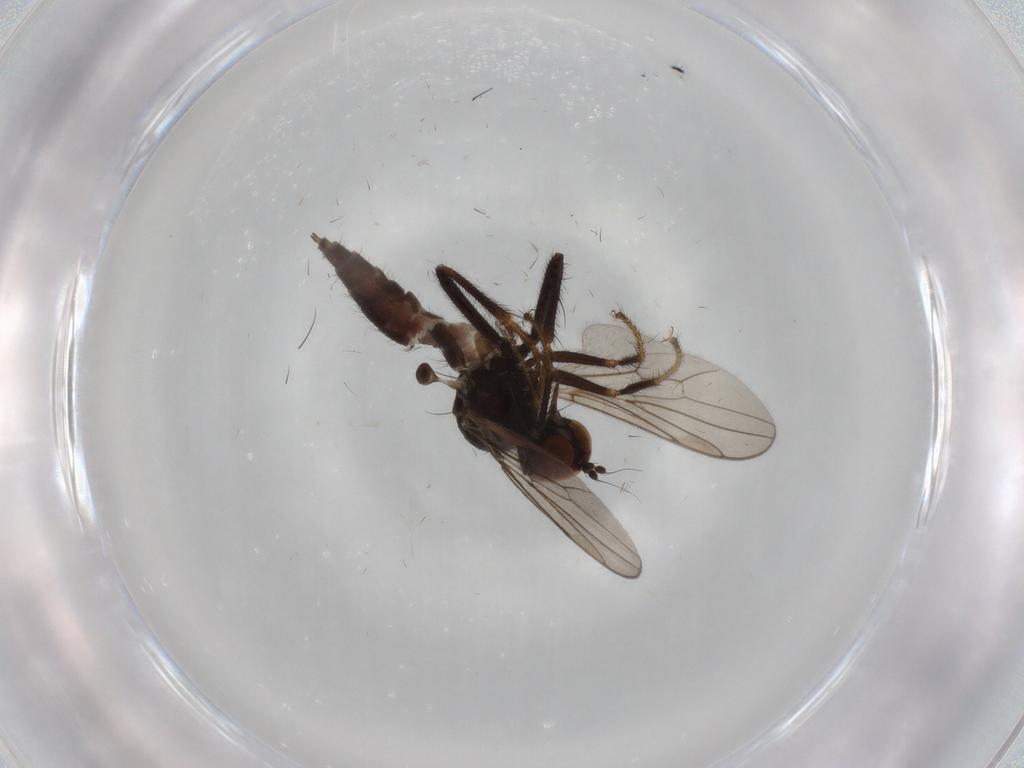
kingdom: Animalia
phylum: Arthropoda
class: Insecta
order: Diptera
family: Hybotidae
